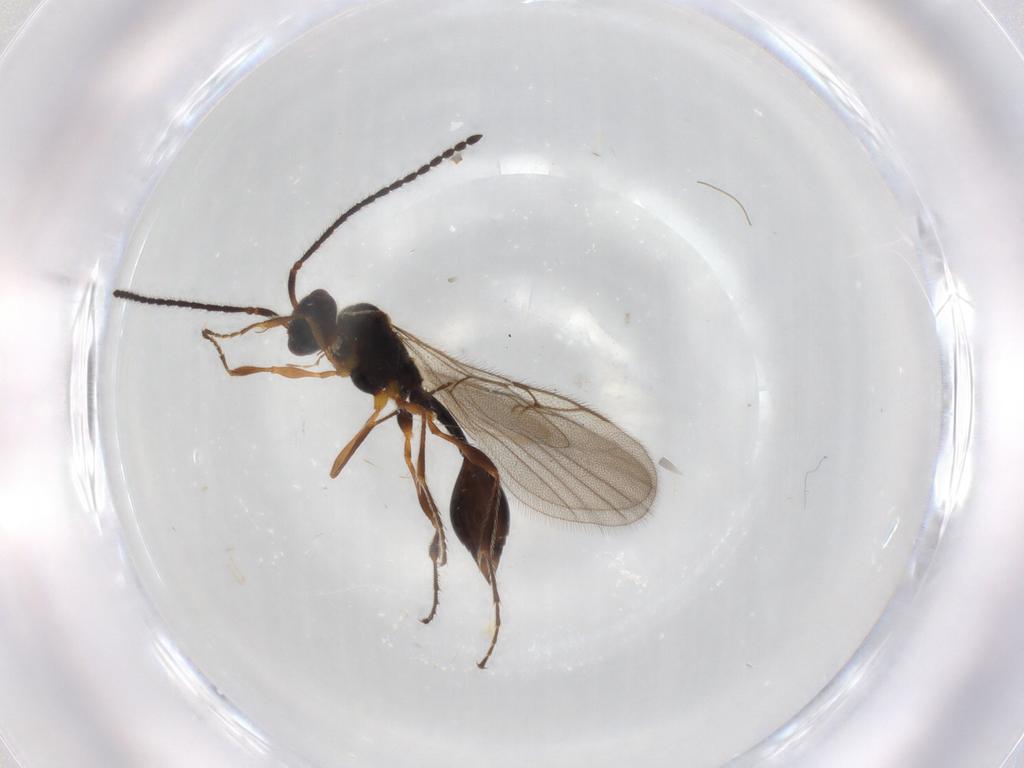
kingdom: Animalia
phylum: Arthropoda
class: Insecta
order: Hymenoptera
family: Diapriidae
